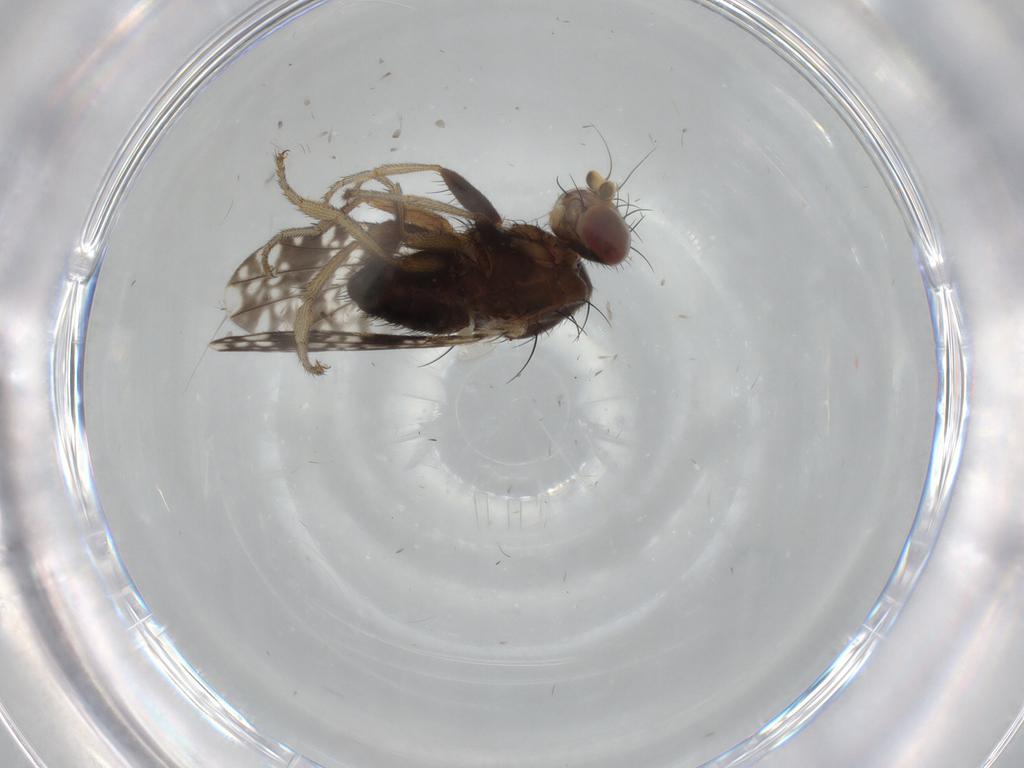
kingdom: Animalia
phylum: Arthropoda
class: Insecta
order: Diptera
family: Tephritidae
